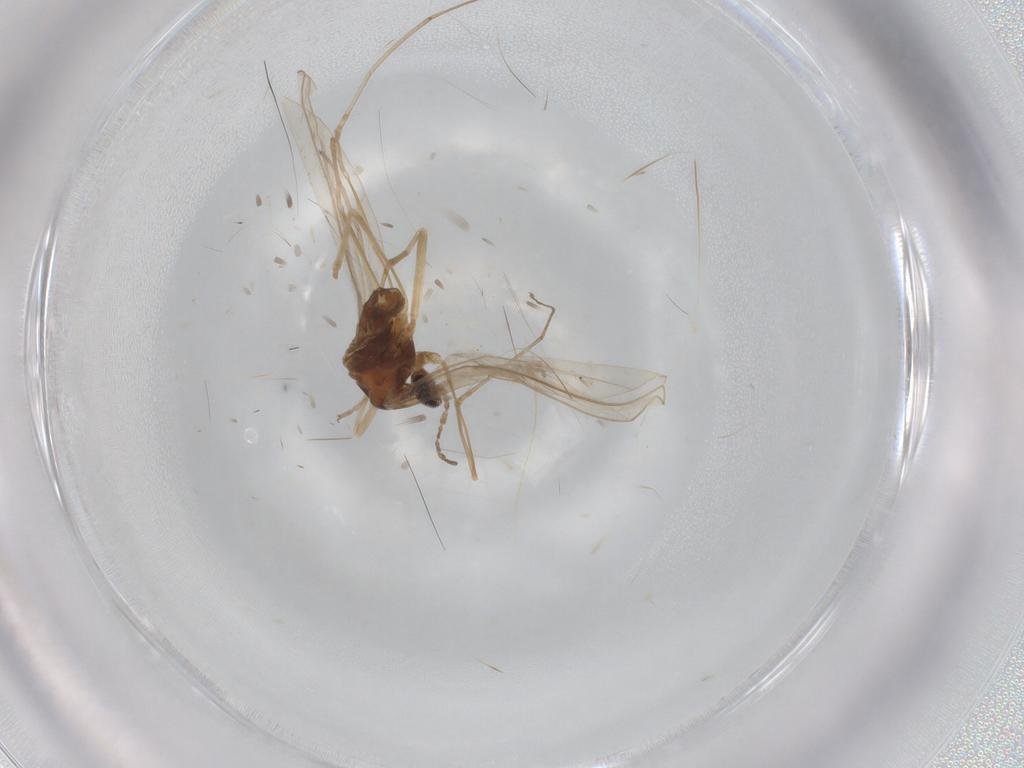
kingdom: Animalia
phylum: Arthropoda
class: Insecta
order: Diptera
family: Cecidomyiidae
